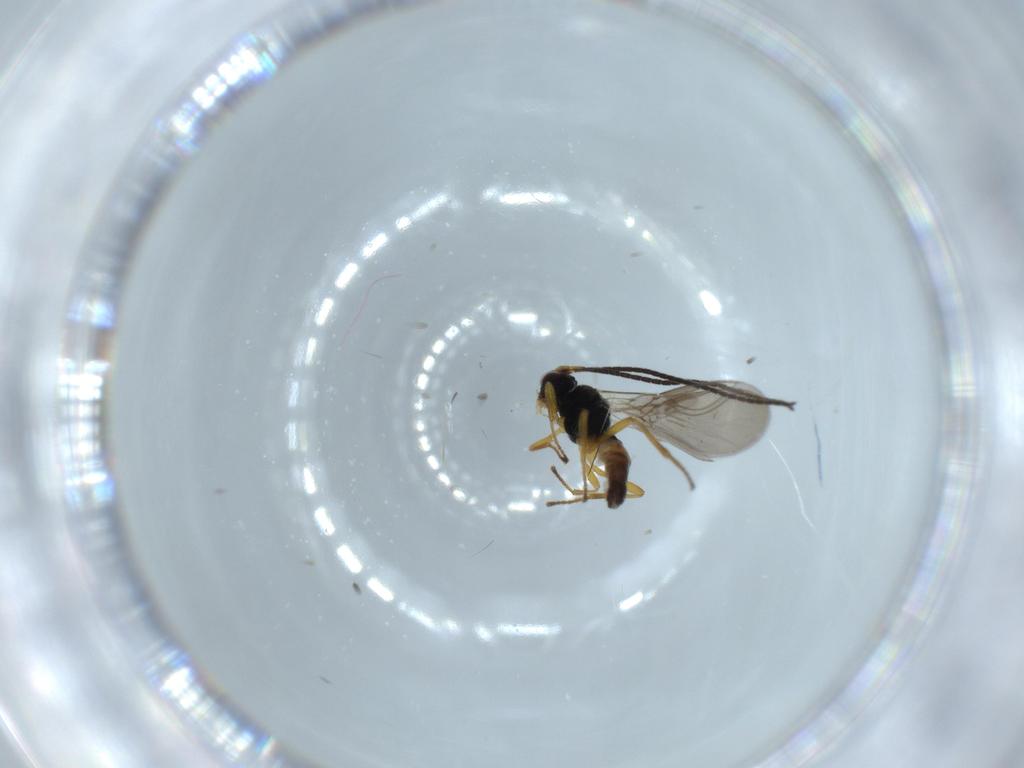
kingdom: Animalia
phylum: Arthropoda
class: Insecta
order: Hymenoptera
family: Braconidae
